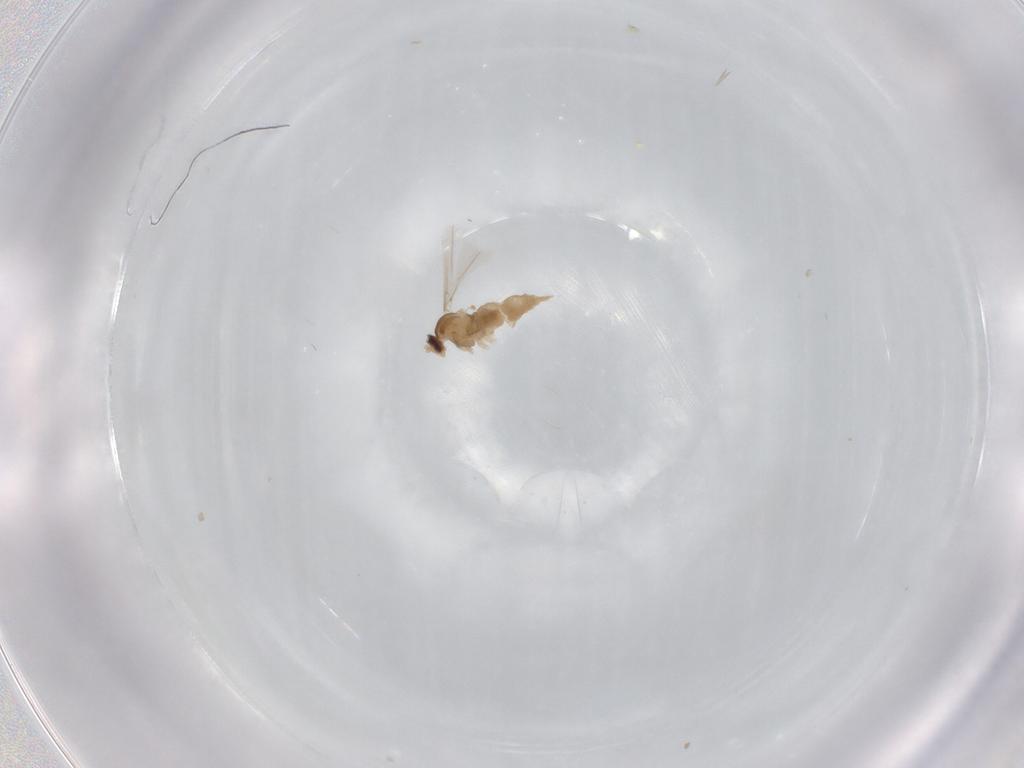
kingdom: Animalia
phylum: Arthropoda
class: Insecta
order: Diptera
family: Cecidomyiidae
